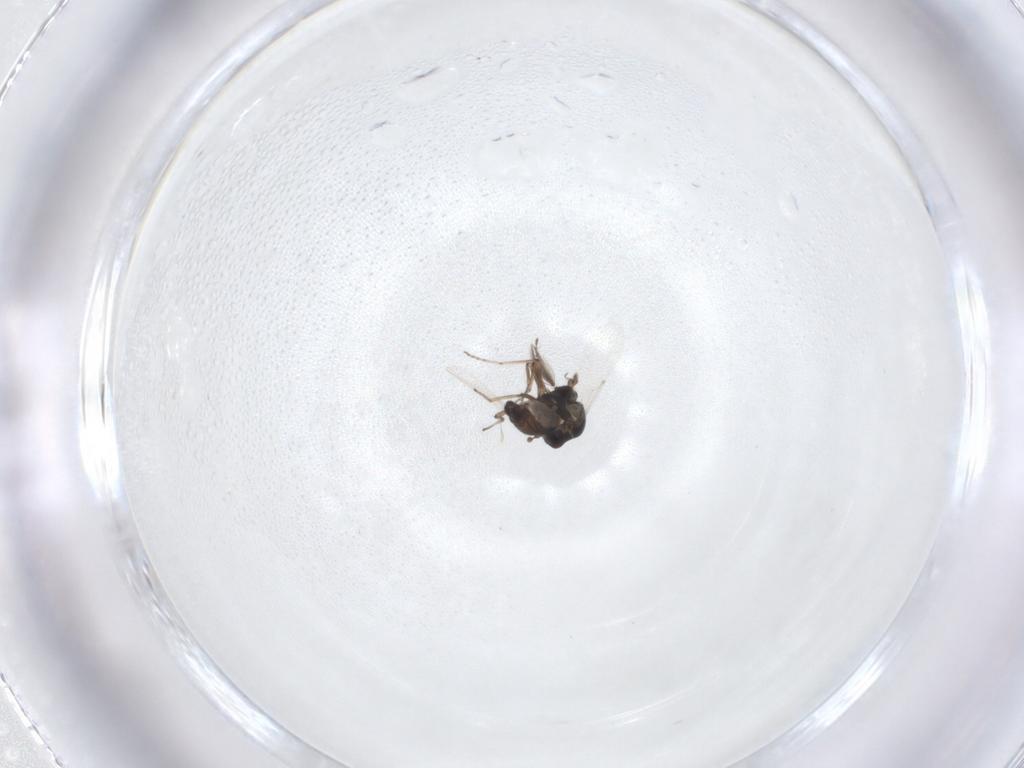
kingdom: Animalia
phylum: Arthropoda
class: Insecta
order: Diptera
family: Ceratopogonidae
